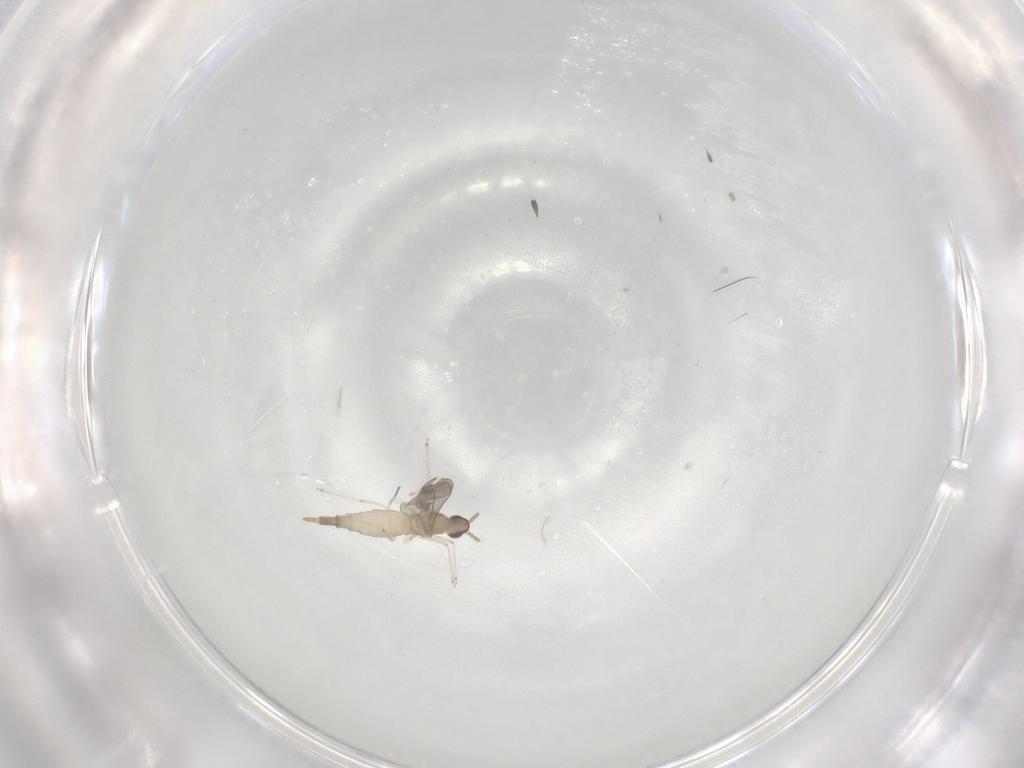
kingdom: Animalia
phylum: Arthropoda
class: Insecta
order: Diptera
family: Cecidomyiidae
